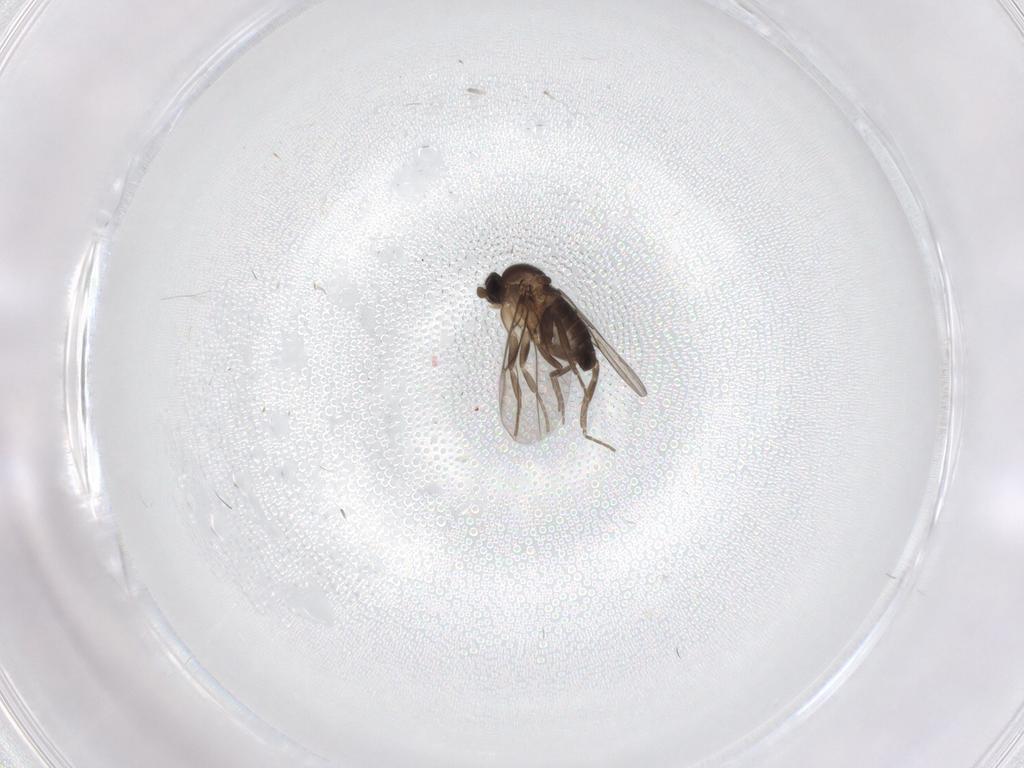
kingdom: Animalia
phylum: Arthropoda
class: Insecta
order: Diptera
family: Phoridae
